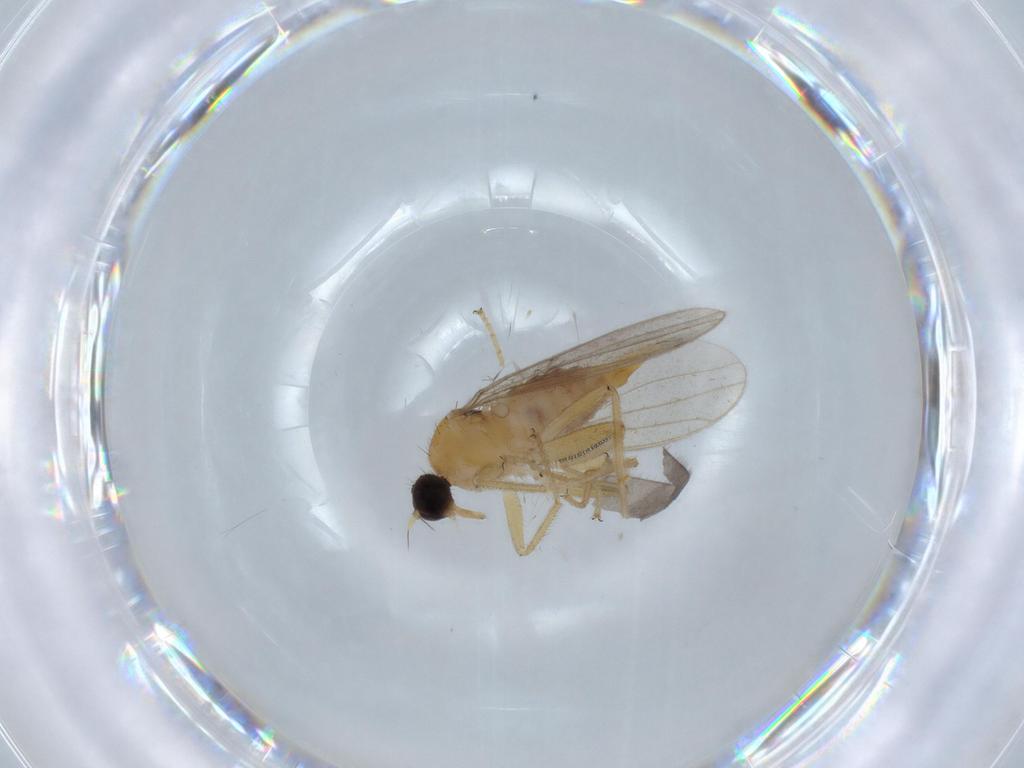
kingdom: Animalia
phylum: Arthropoda
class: Insecta
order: Diptera
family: Hybotidae
